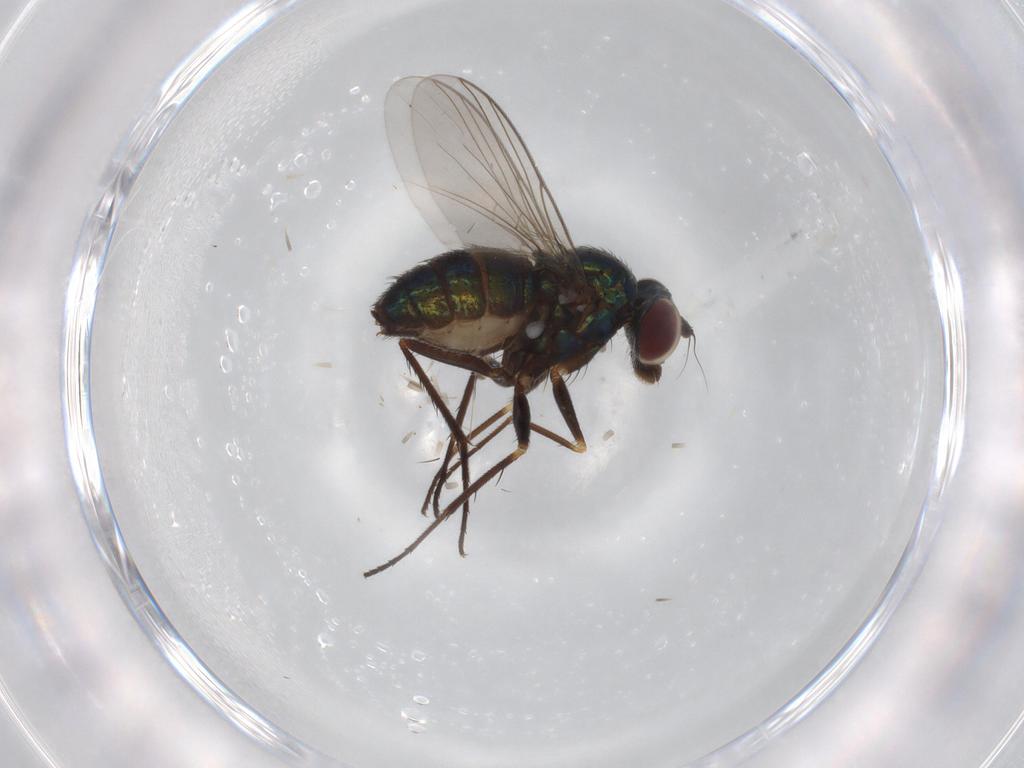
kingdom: Animalia
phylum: Arthropoda
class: Insecta
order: Diptera
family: Dolichopodidae
